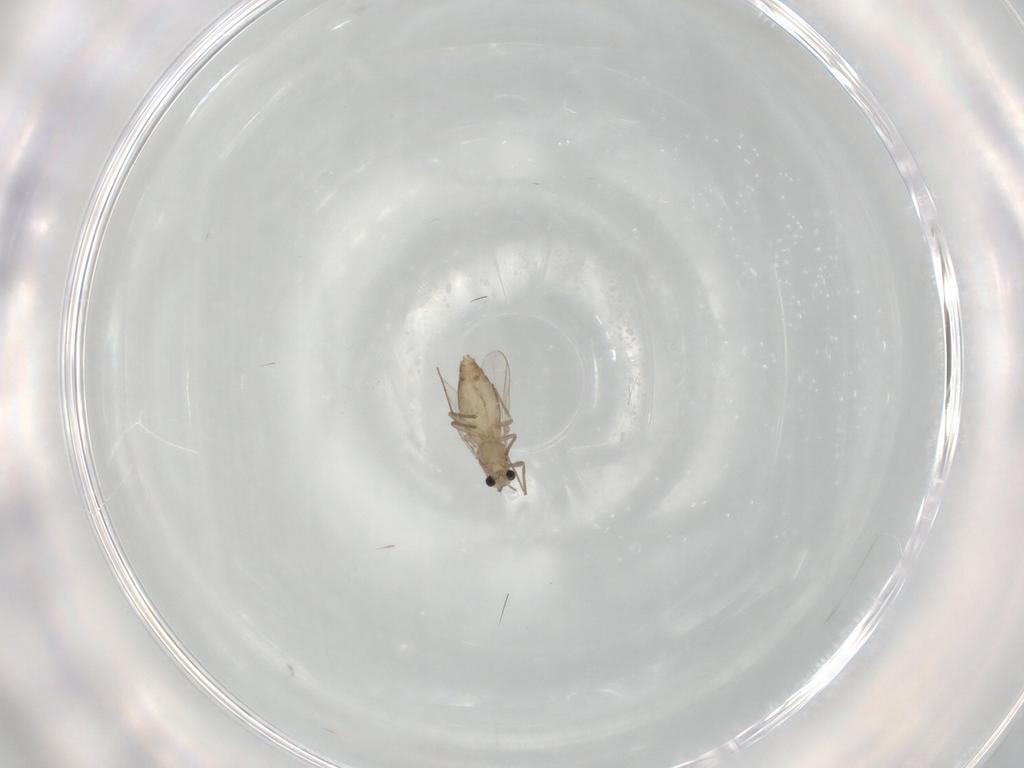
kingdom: Animalia
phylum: Arthropoda
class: Insecta
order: Diptera
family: Chironomidae
